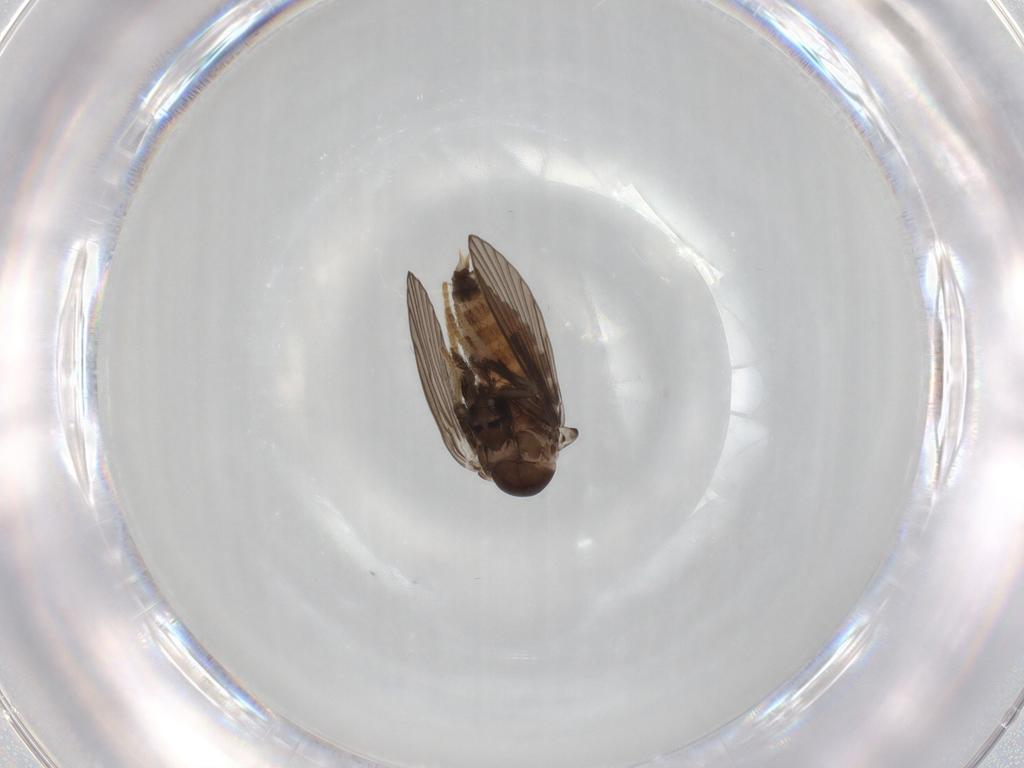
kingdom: Animalia
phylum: Arthropoda
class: Insecta
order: Diptera
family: Psychodidae
